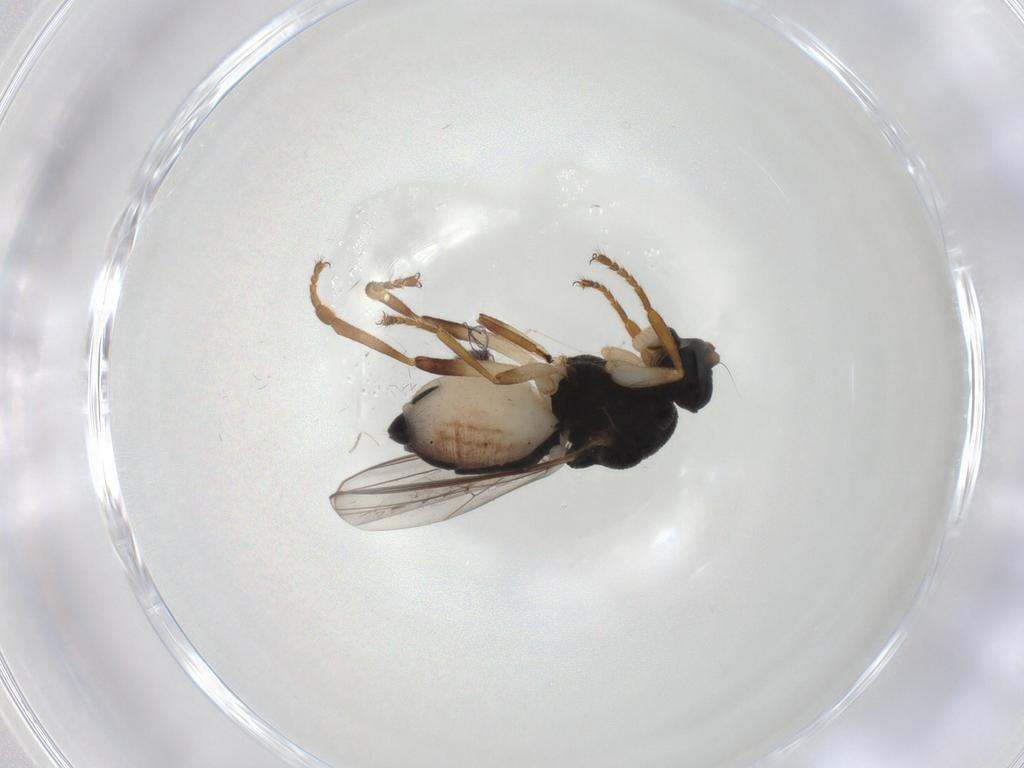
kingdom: Animalia
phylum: Arthropoda
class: Insecta
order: Diptera
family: Sphaeroceridae
